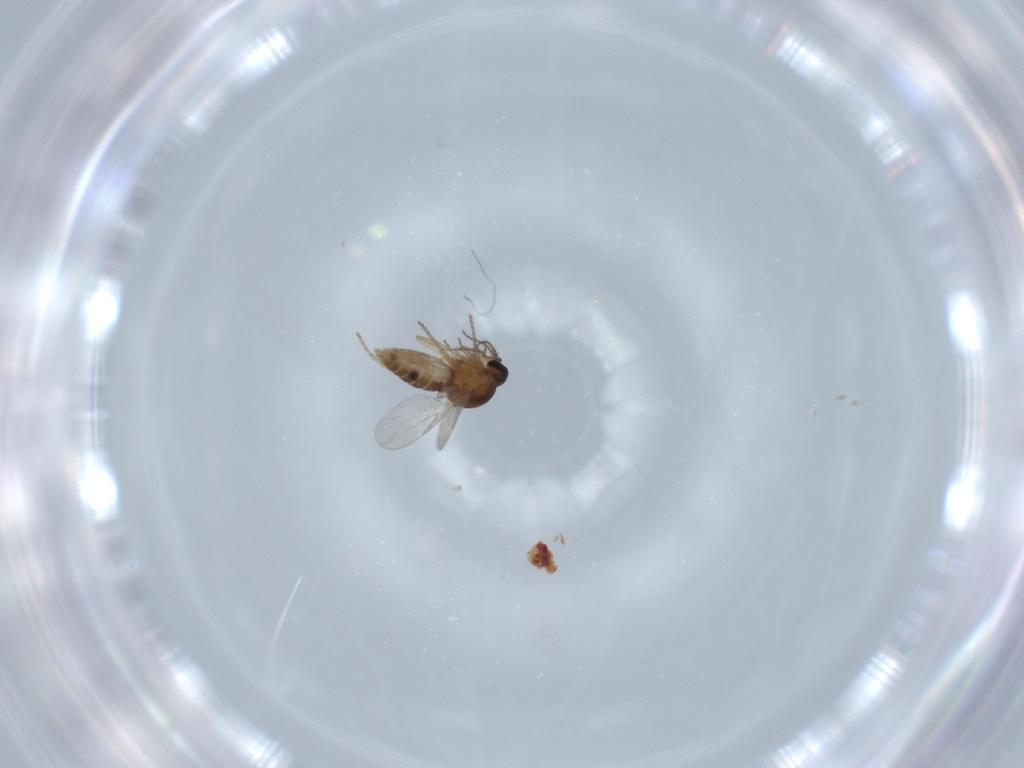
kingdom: Animalia
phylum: Arthropoda
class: Insecta
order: Diptera
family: Ceratopogonidae
